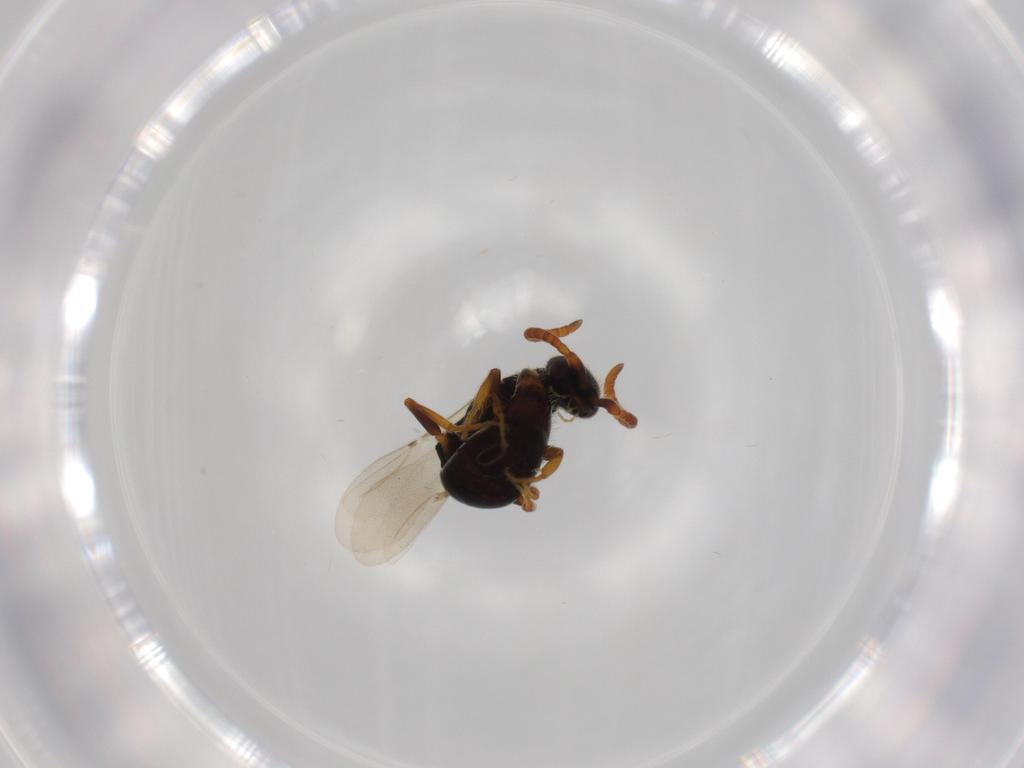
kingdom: Animalia
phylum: Arthropoda
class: Insecta
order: Hymenoptera
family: Bethylidae
